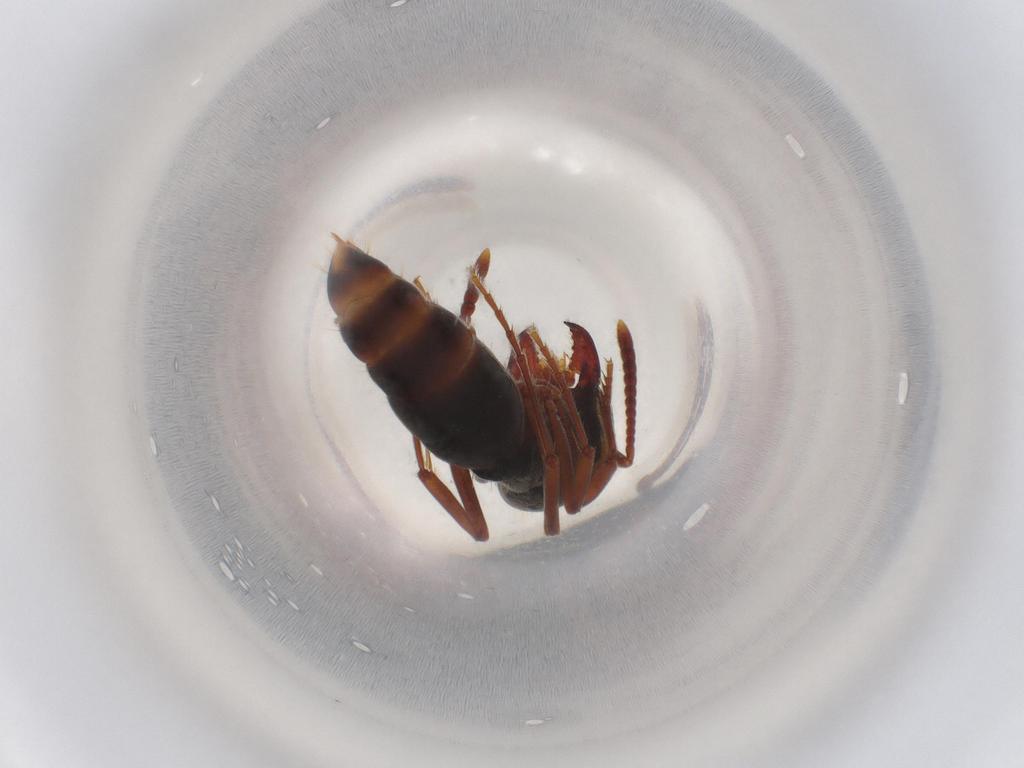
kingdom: Animalia
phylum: Arthropoda
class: Insecta
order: Hymenoptera
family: Formicidae
